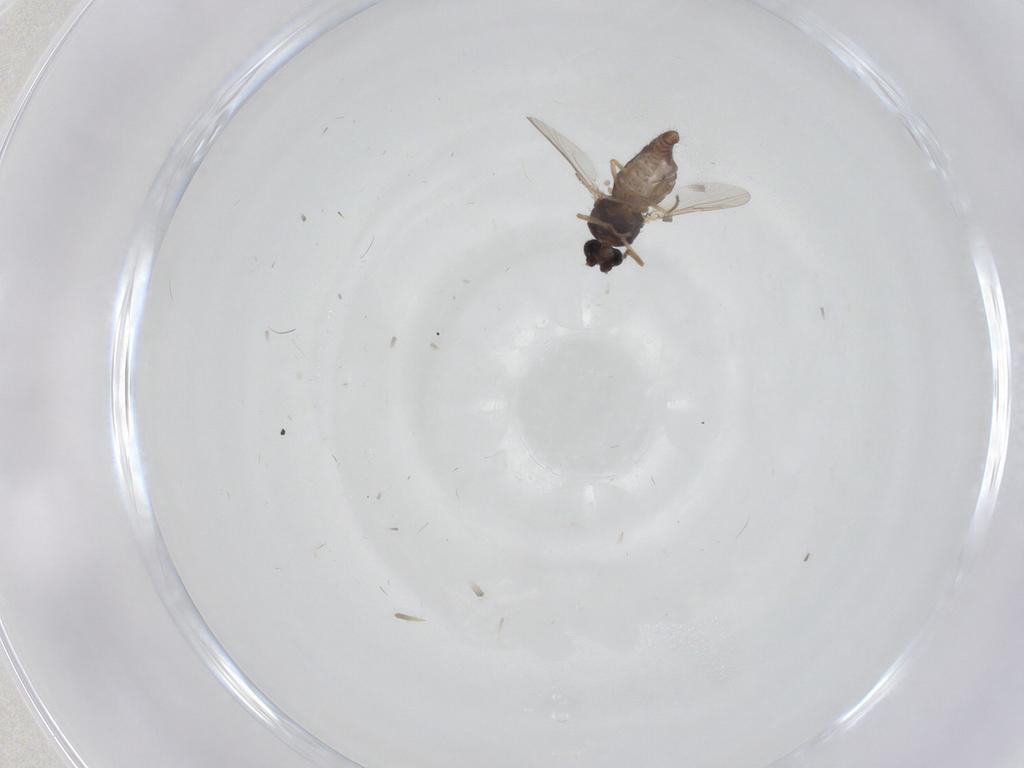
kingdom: Animalia
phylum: Arthropoda
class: Insecta
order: Diptera
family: Ceratopogonidae
